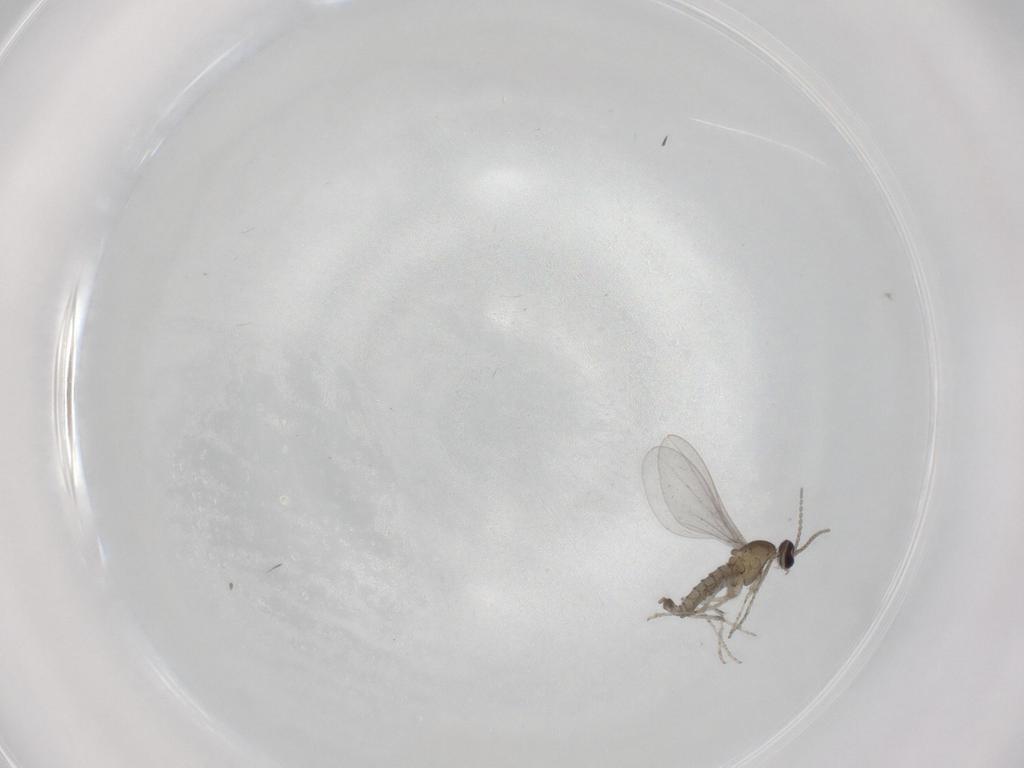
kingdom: Animalia
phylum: Arthropoda
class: Insecta
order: Diptera
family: Cecidomyiidae
